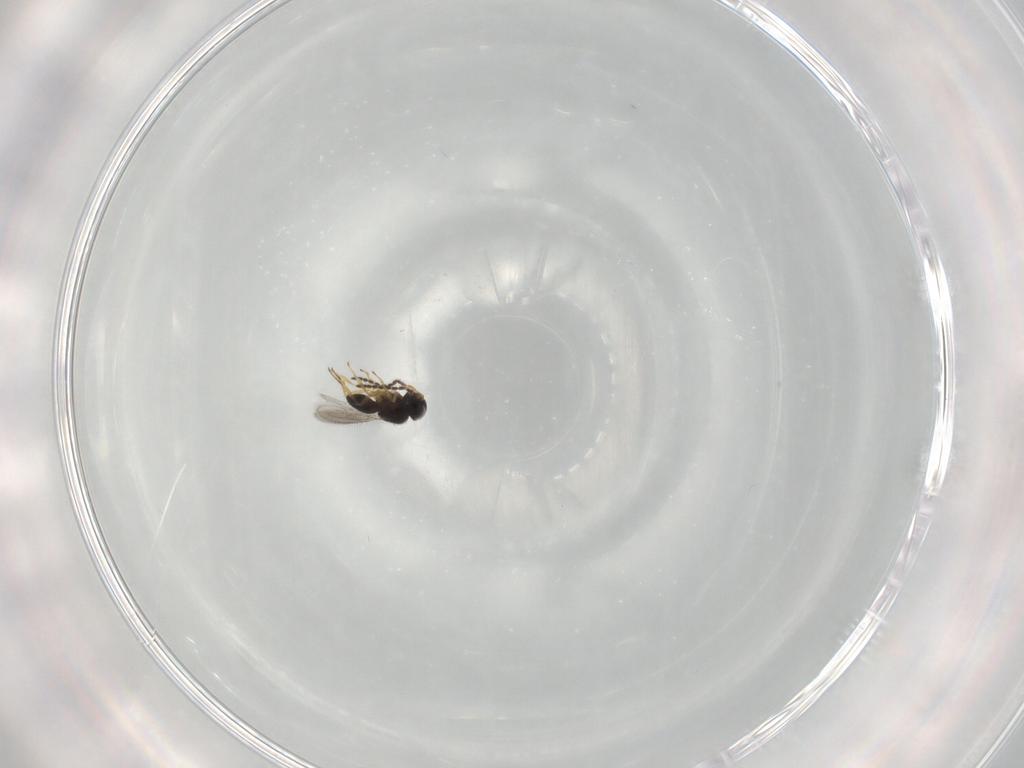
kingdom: Animalia
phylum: Arthropoda
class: Insecta
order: Hymenoptera
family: Scelionidae
